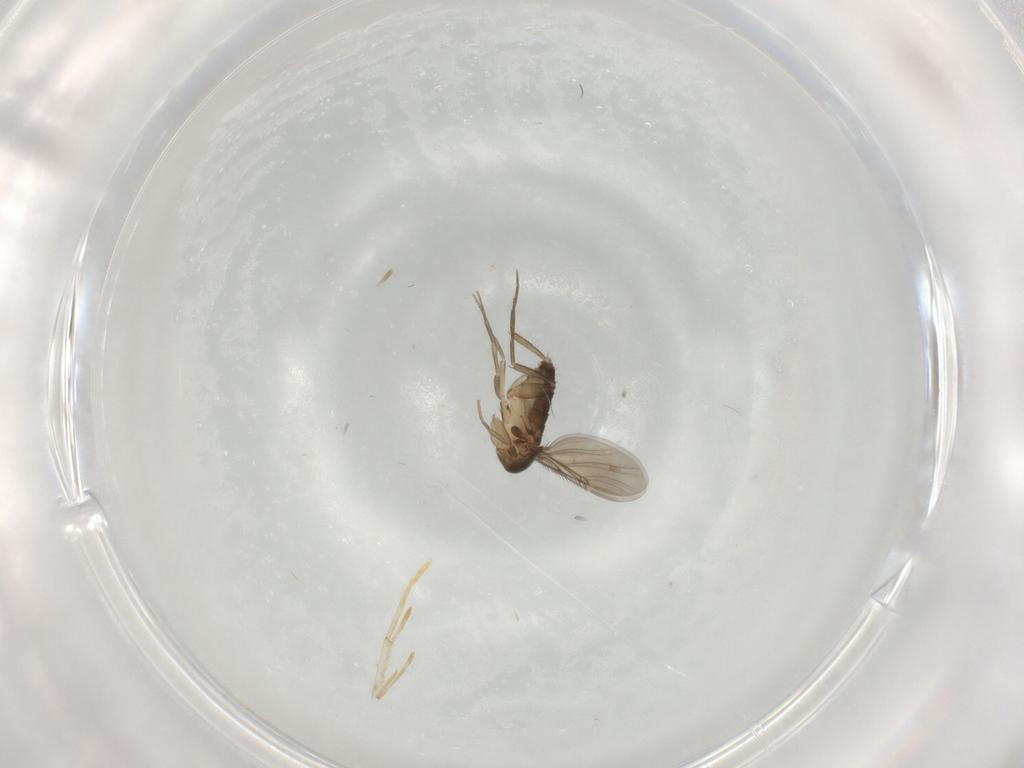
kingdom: Animalia
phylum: Arthropoda
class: Insecta
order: Diptera
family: Phoridae
